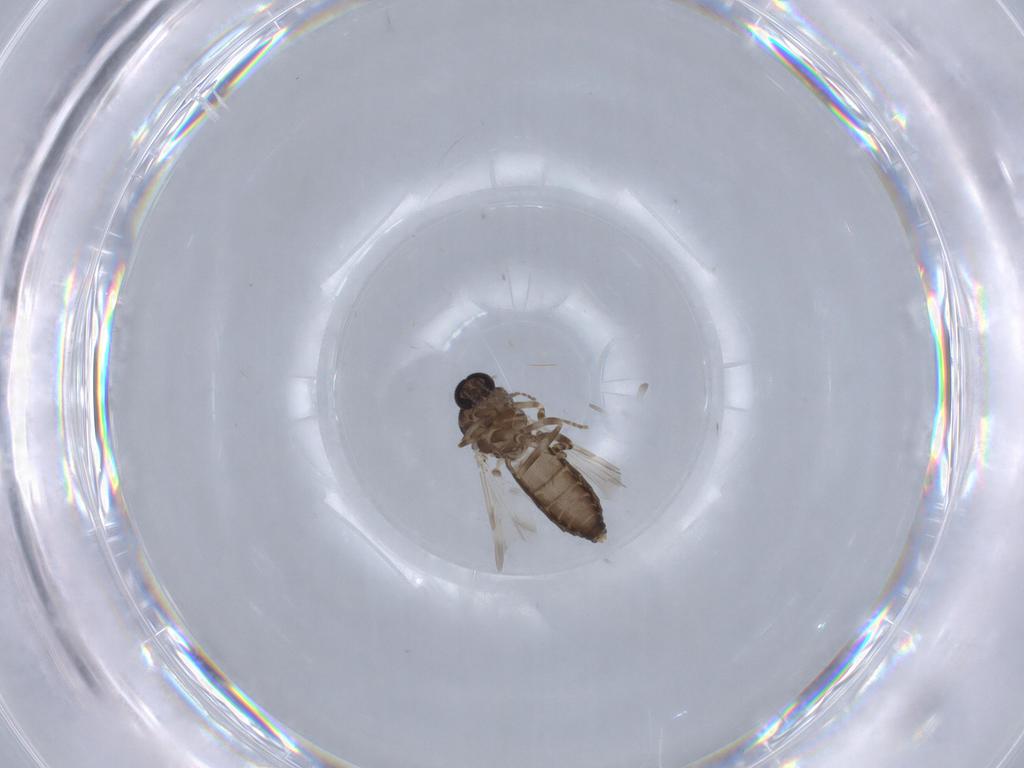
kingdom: Animalia
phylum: Arthropoda
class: Insecta
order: Diptera
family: Ceratopogonidae
